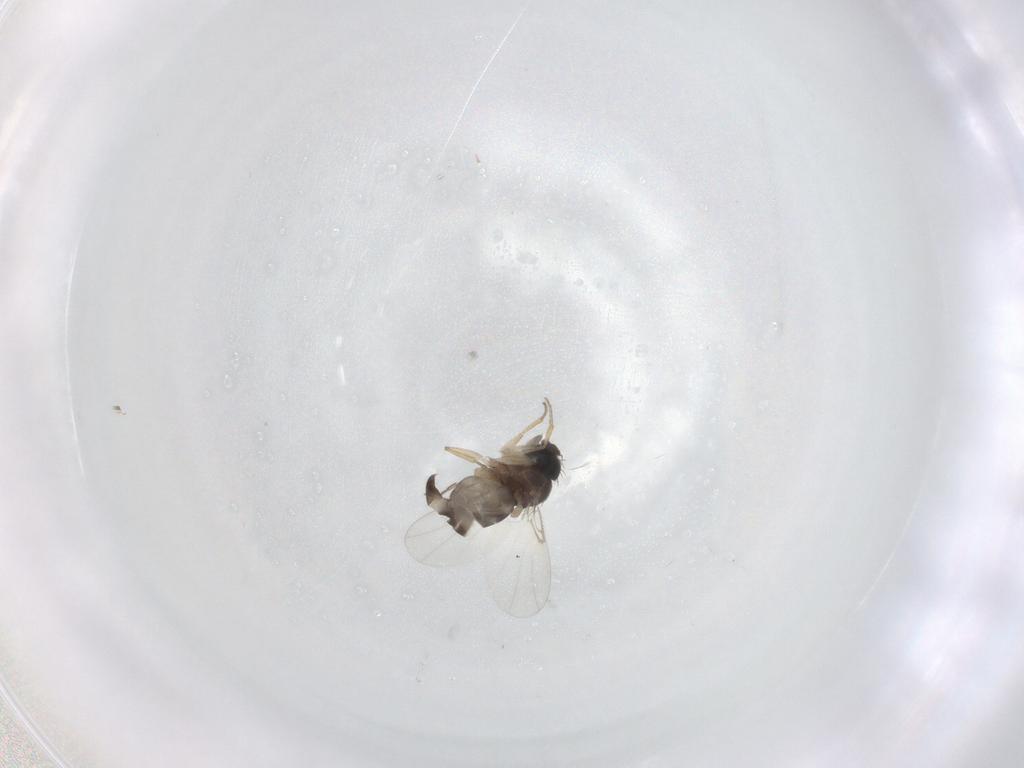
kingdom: Animalia
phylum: Arthropoda
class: Insecta
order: Diptera
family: Phoridae
